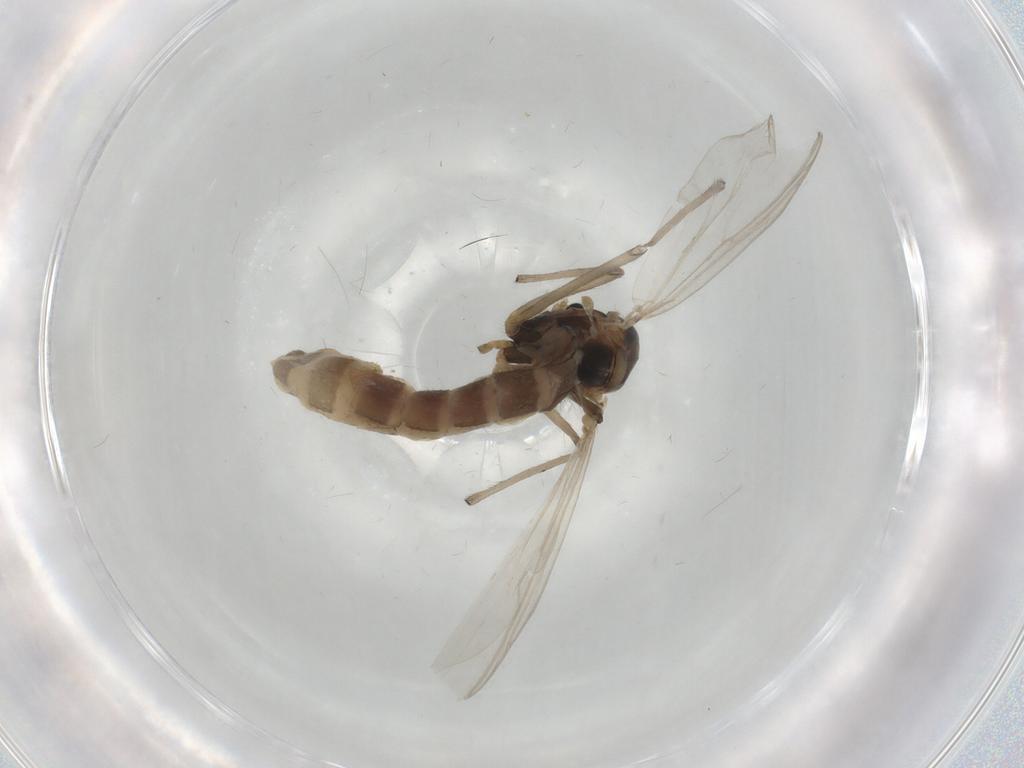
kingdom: Animalia
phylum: Arthropoda
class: Insecta
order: Diptera
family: Chironomidae
